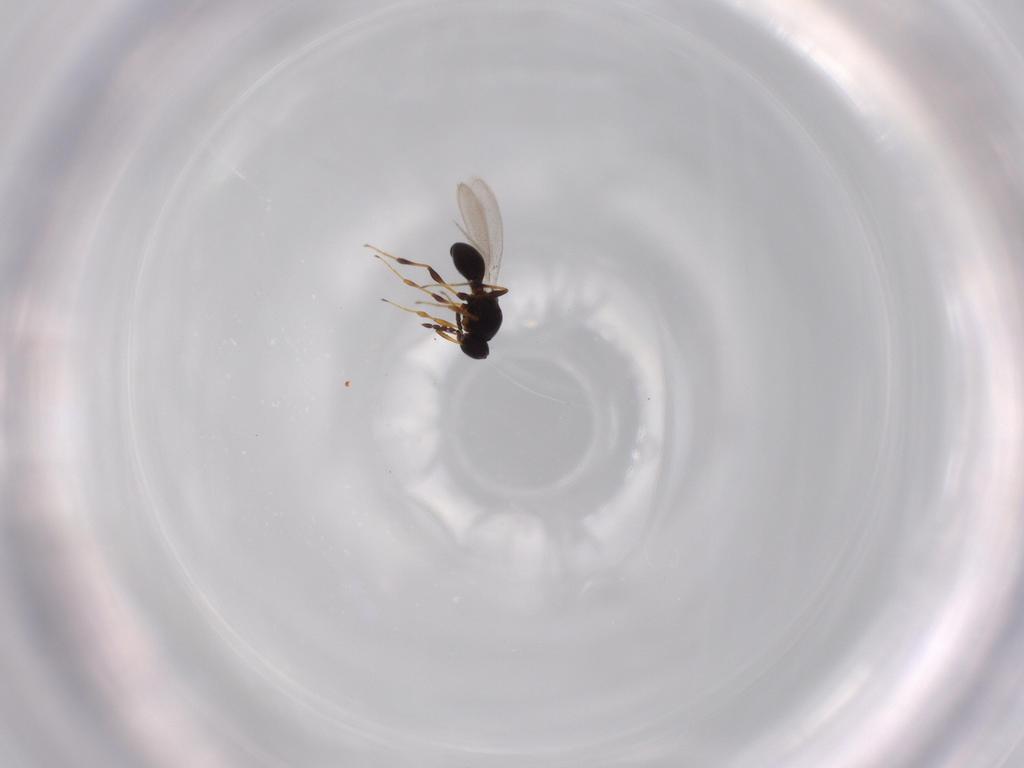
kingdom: Animalia
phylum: Arthropoda
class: Insecta
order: Hymenoptera
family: Platygastridae
